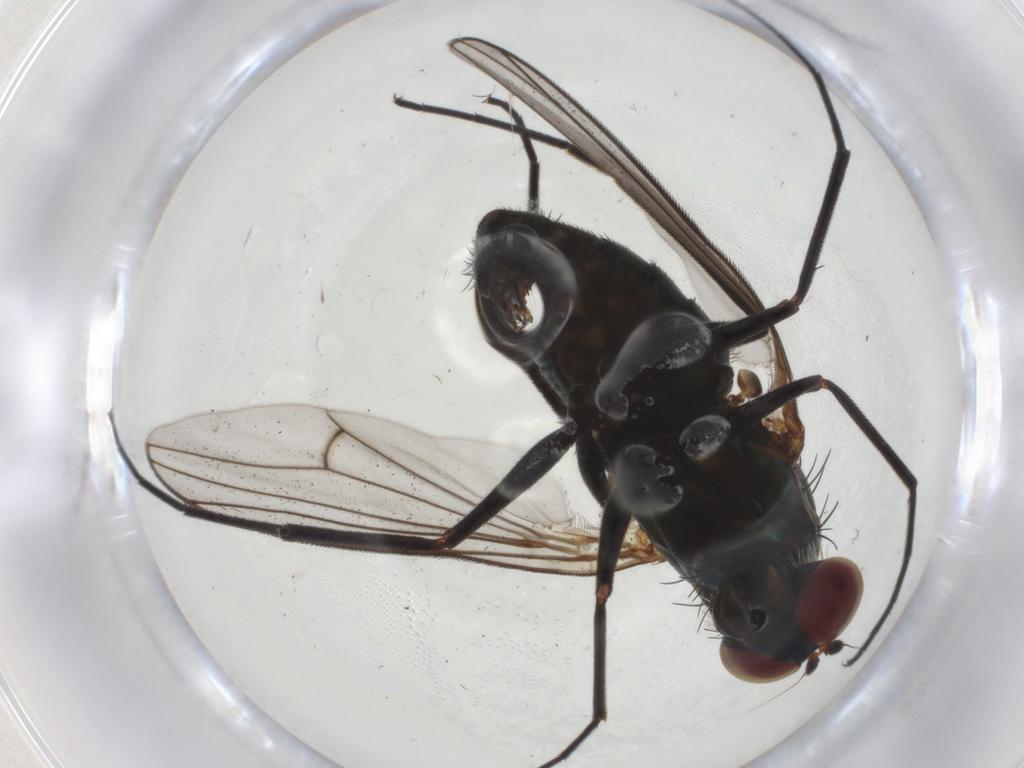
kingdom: Animalia
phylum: Arthropoda
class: Insecta
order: Diptera
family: Dolichopodidae
